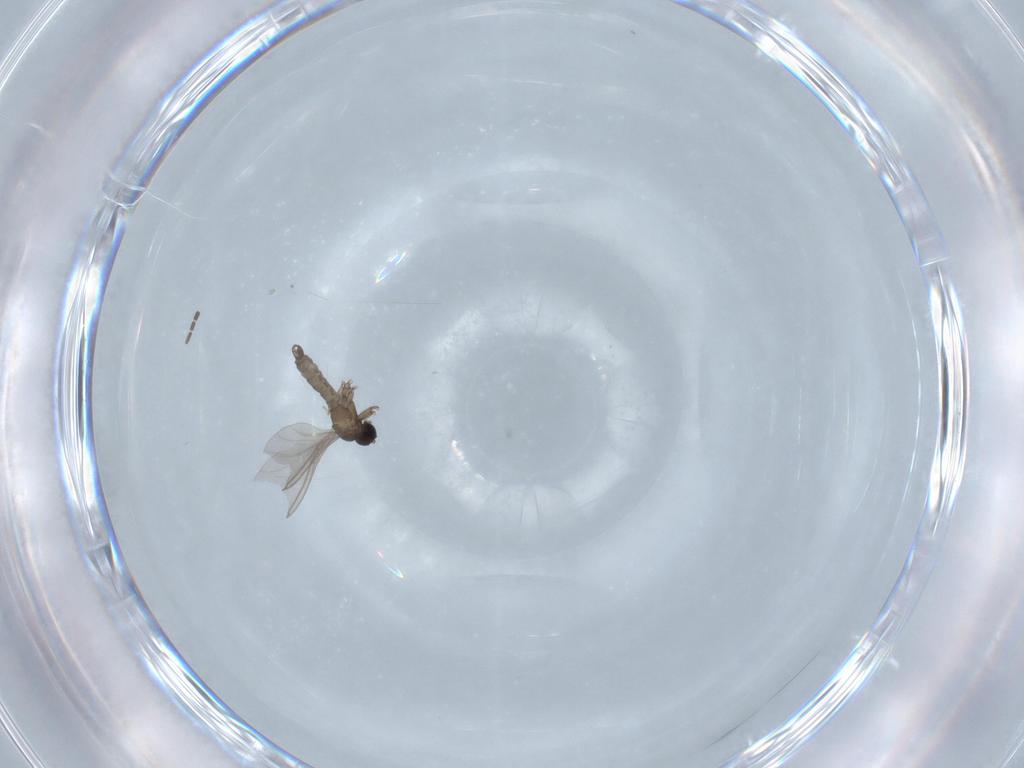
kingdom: Animalia
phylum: Arthropoda
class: Insecta
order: Diptera
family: Sciaridae
